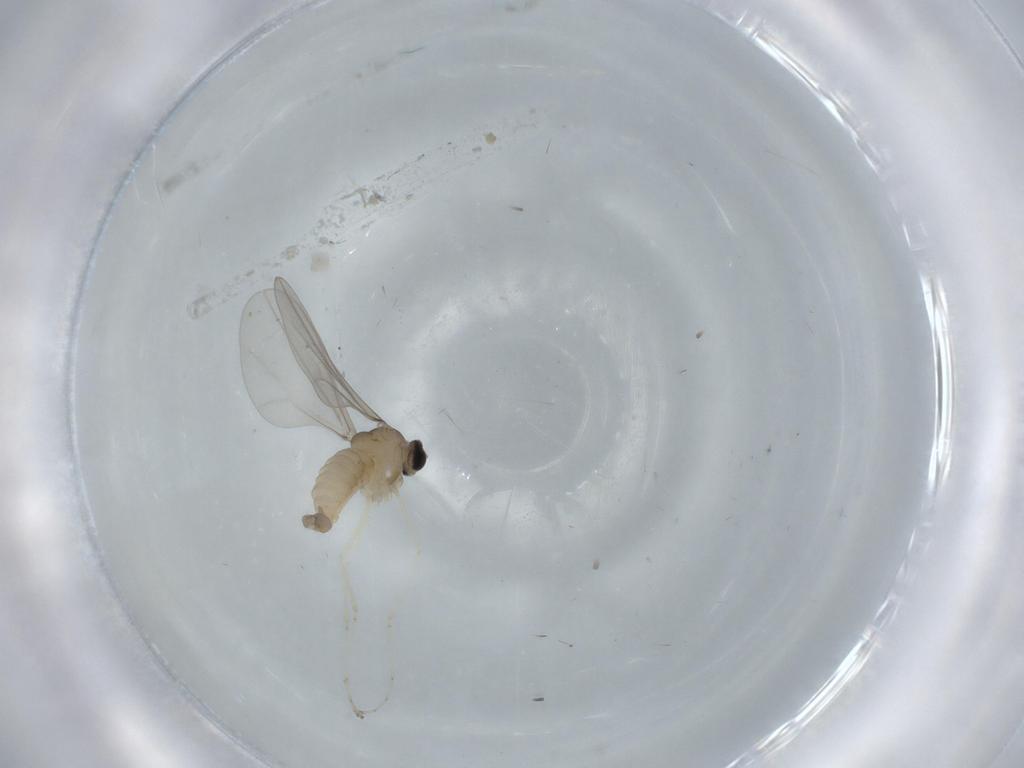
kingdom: Animalia
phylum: Arthropoda
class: Insecta
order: Diptera
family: Cecidomyiidae
